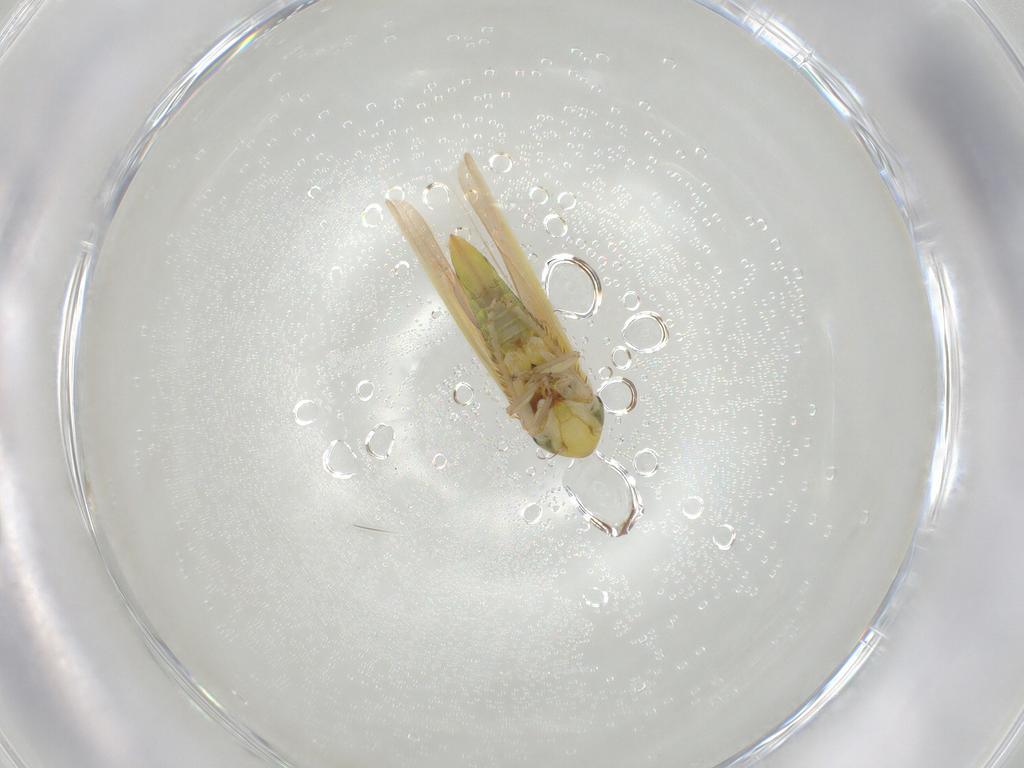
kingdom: Animalia
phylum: Arthropoda
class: Insecta
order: Hemiptera
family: Cicadellidae
